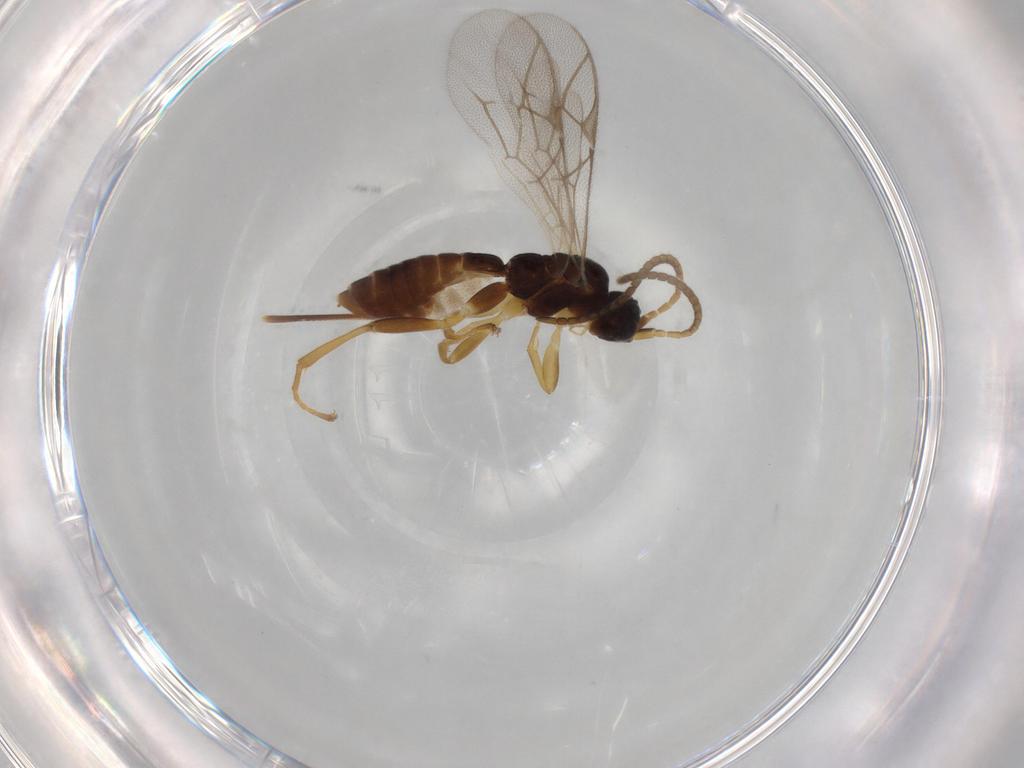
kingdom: Animalia
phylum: Arthropoda
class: Insecta
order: Hymenoptera
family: Ichneumonidae
